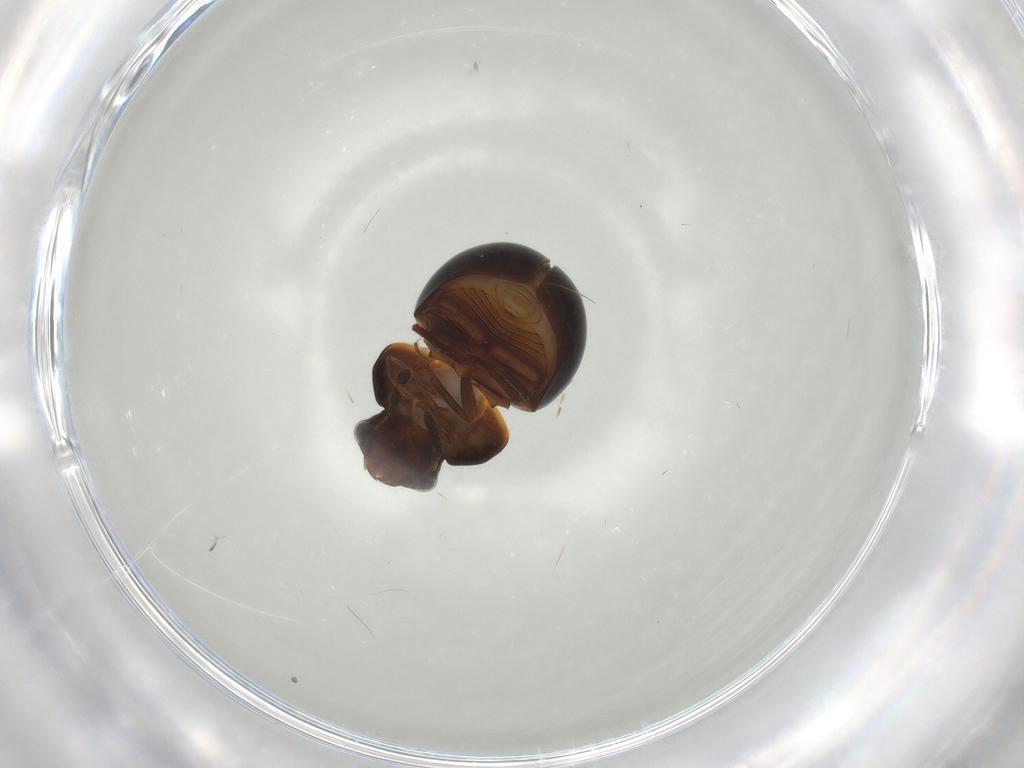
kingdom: Animalia
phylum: Arthropoda
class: Insecta
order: Coleoptera
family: Leiodidae
